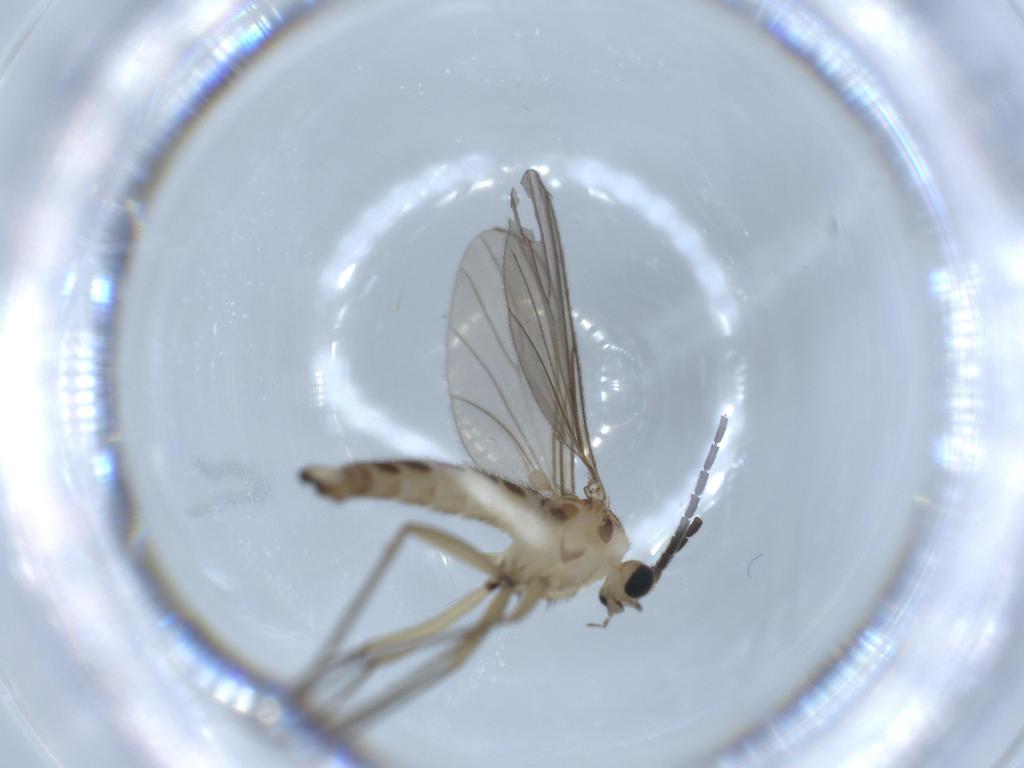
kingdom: Animalia
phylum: Arthropoda
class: Insecta
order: Diptera
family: Sciaridae
